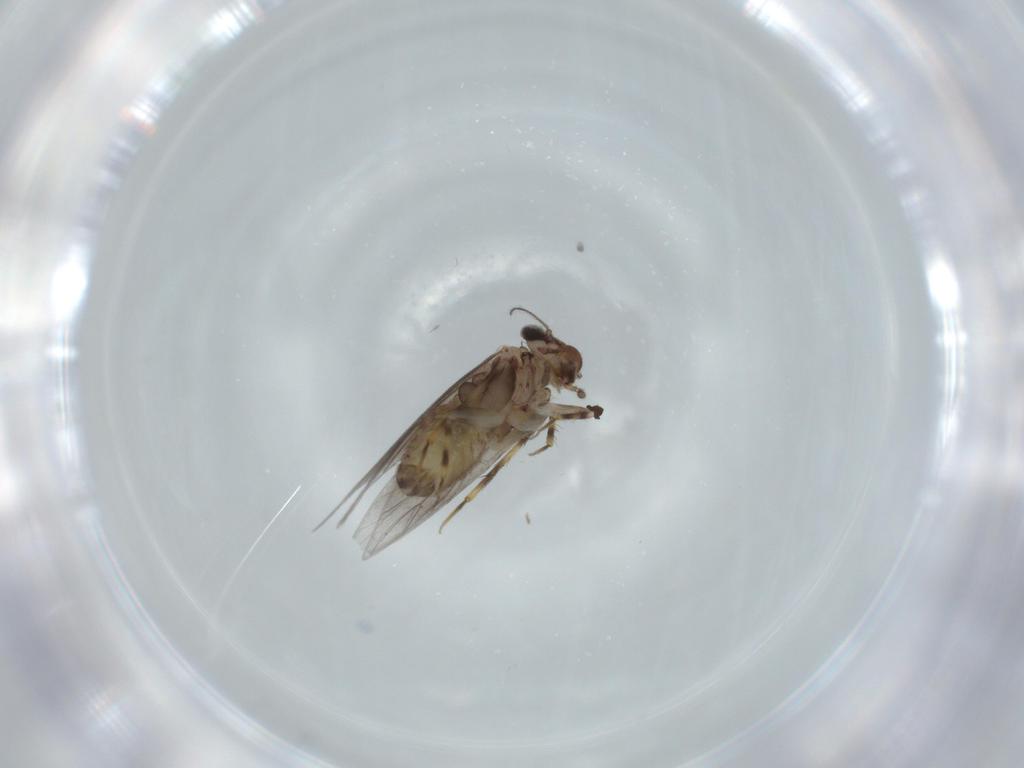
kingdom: Animalia
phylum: Arthropoda
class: Insecta
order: Psocodea
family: Lepidopsocidae
